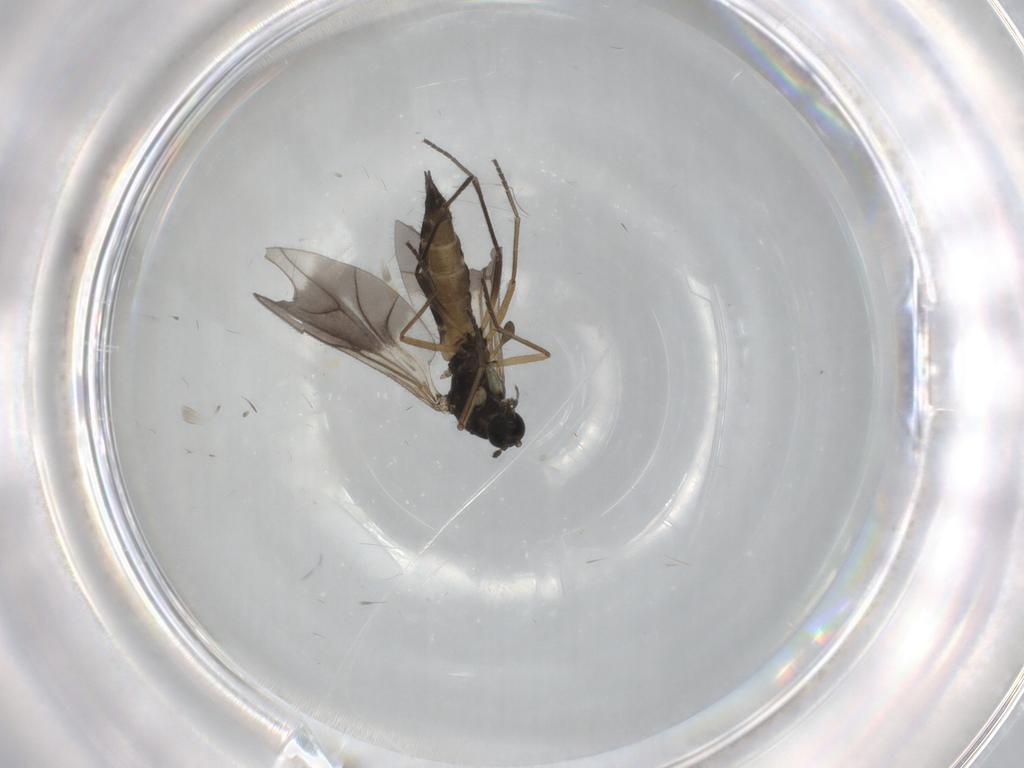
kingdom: Animalia
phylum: Arthropoda
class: Insecta
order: Diptera
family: Sciaridae
